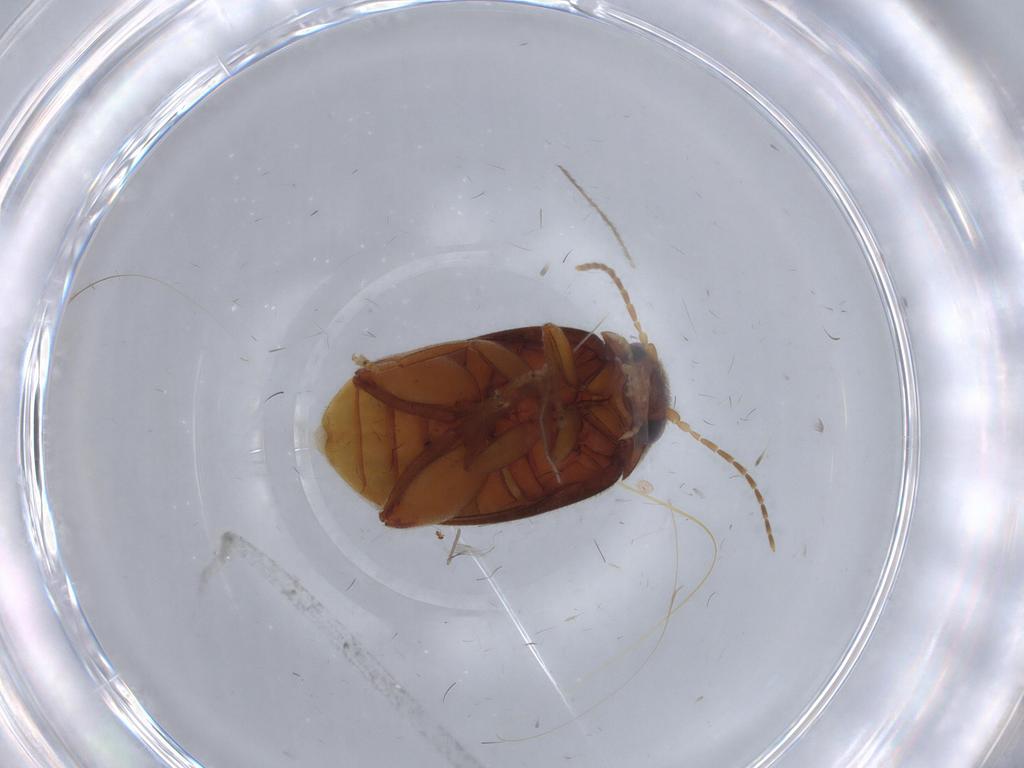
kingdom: Animalia
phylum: Arthropoda
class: Insecta
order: Coleoptera
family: Scirtidae
